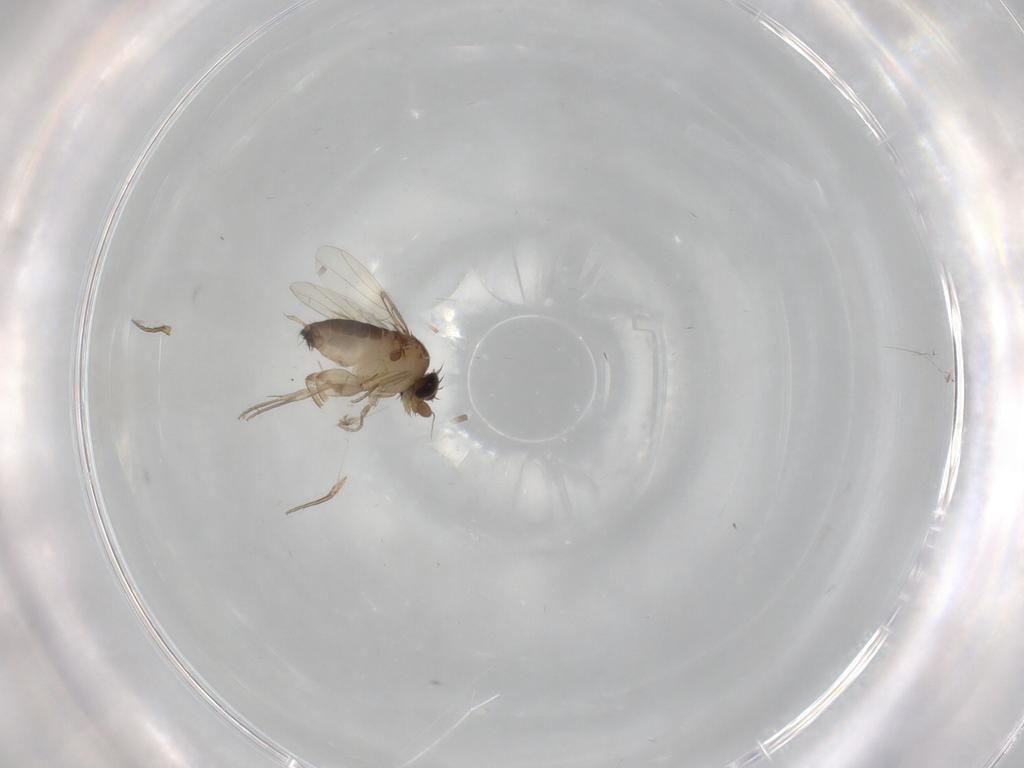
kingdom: Animalia
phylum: Arthropoda
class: Insecta
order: Diptera
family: Phoridae
